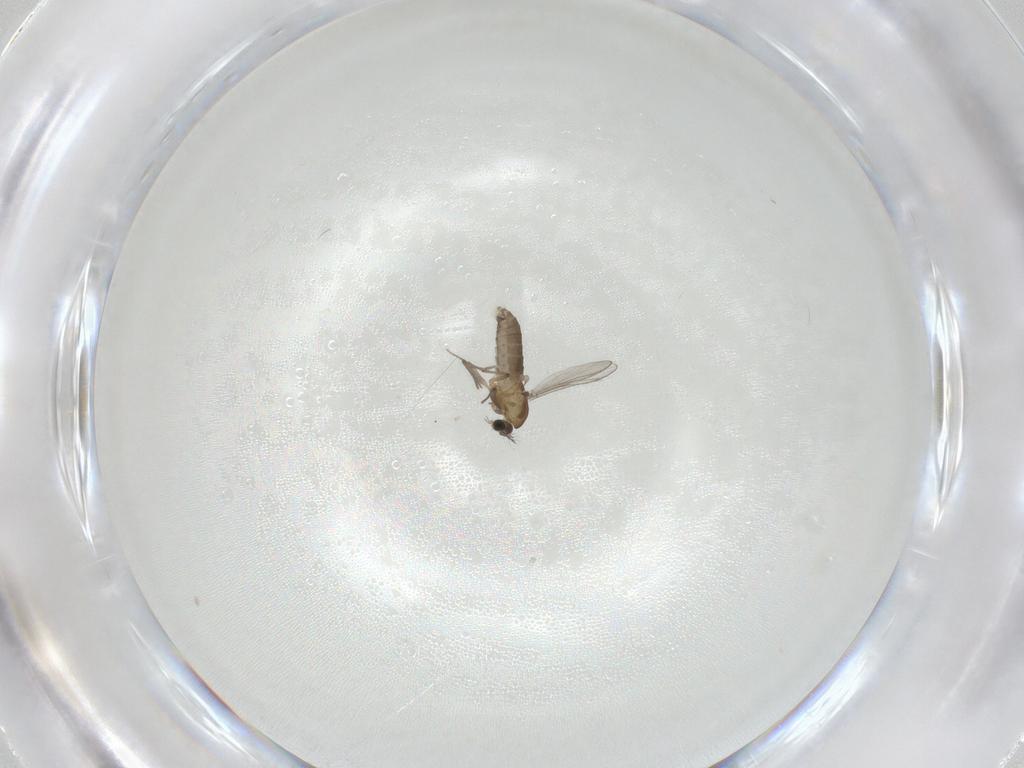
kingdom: Animalia
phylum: Arthropoda
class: Insecta
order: Diptera
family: Chironomidae
